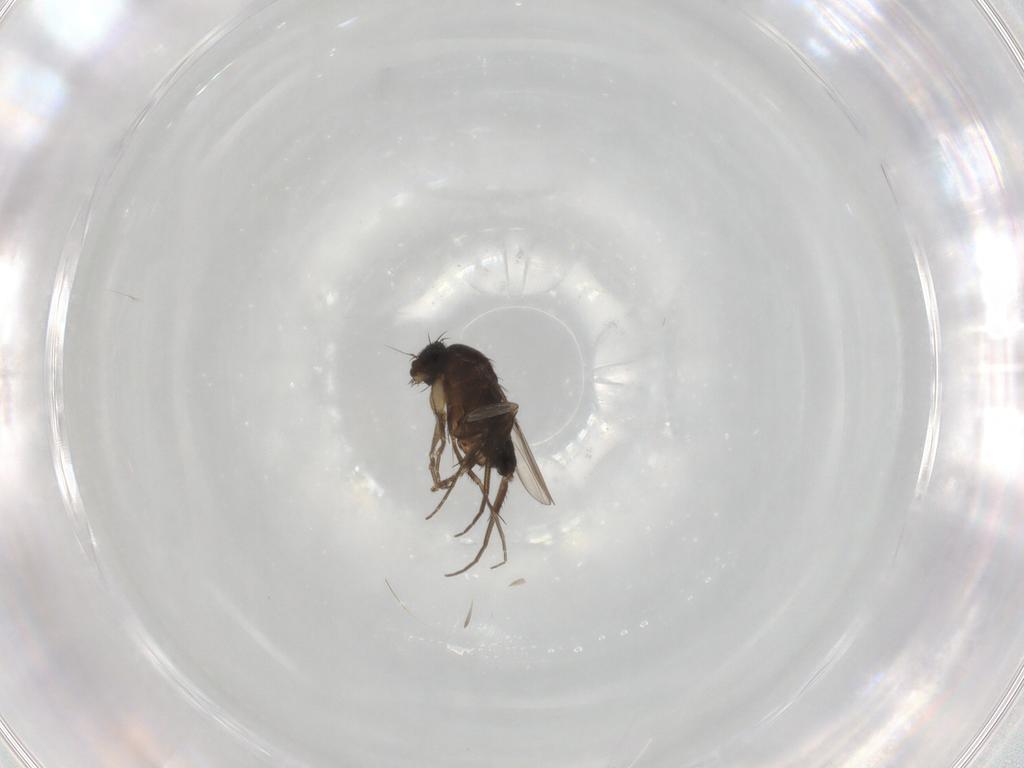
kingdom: Animalia
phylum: Arthropoda
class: Insecta
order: Diptera
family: Phoridae
